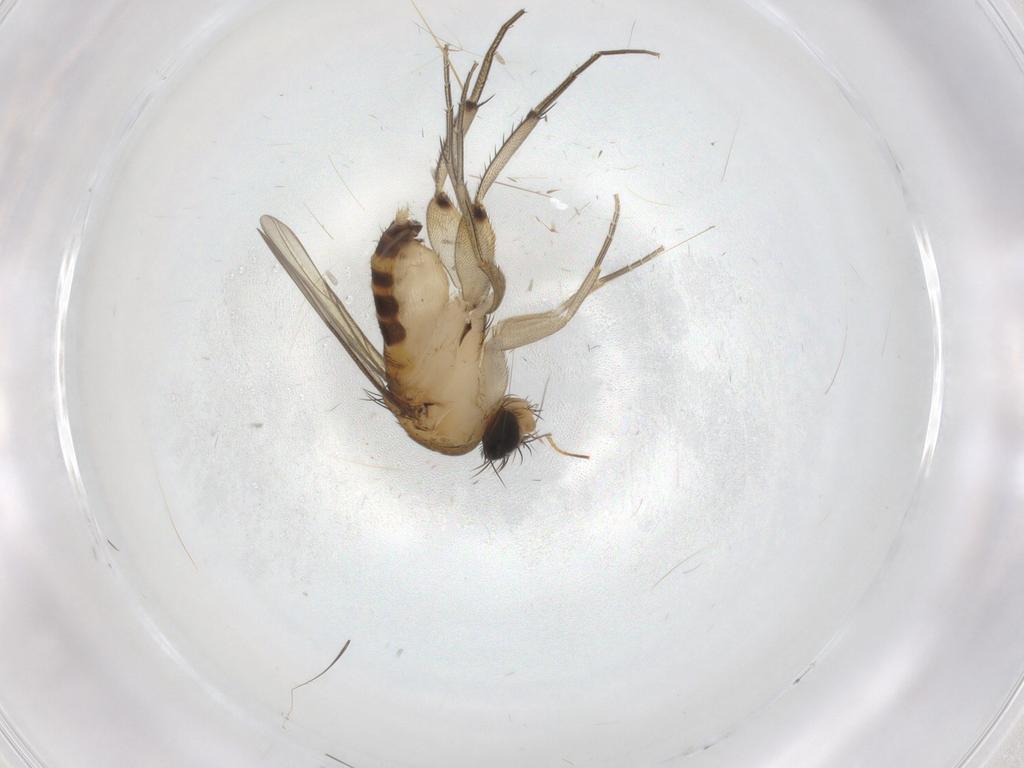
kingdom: Animalia
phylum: Arthropoda
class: Insecta
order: Diptera
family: Phoridae
